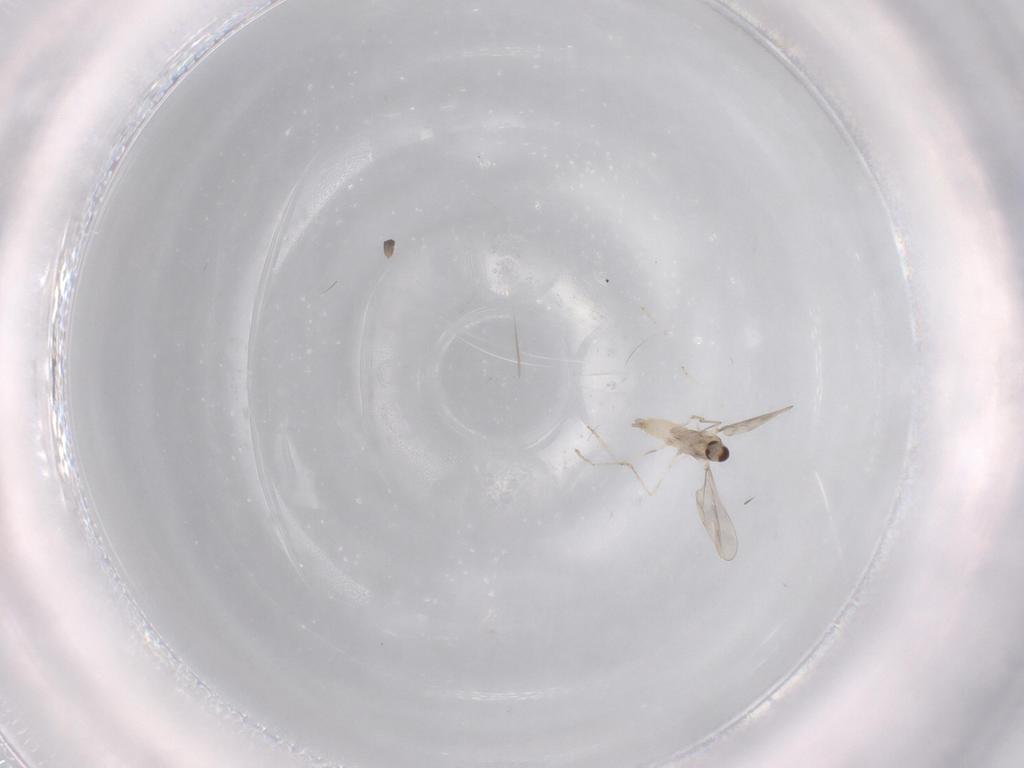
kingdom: Animalia
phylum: Arthropoda
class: Insecta
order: Diptera
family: Cecidomyiidae
